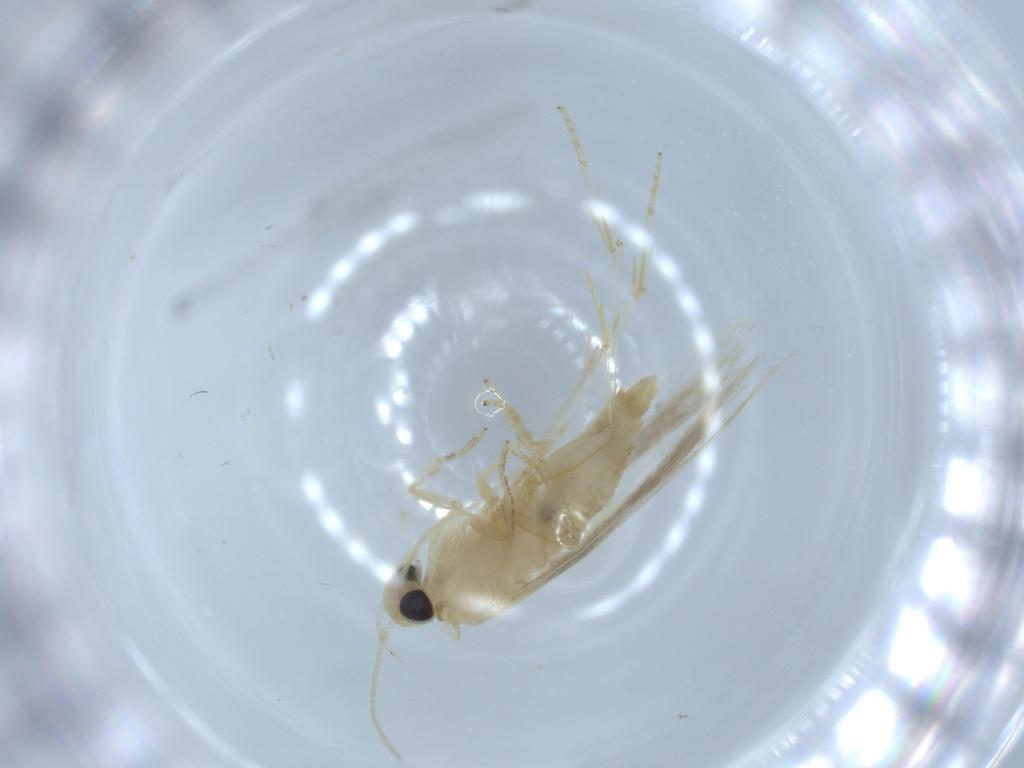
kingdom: Animalia
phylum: Arthropoda
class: Insecta
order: Lepidoptera
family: Autostichidae
